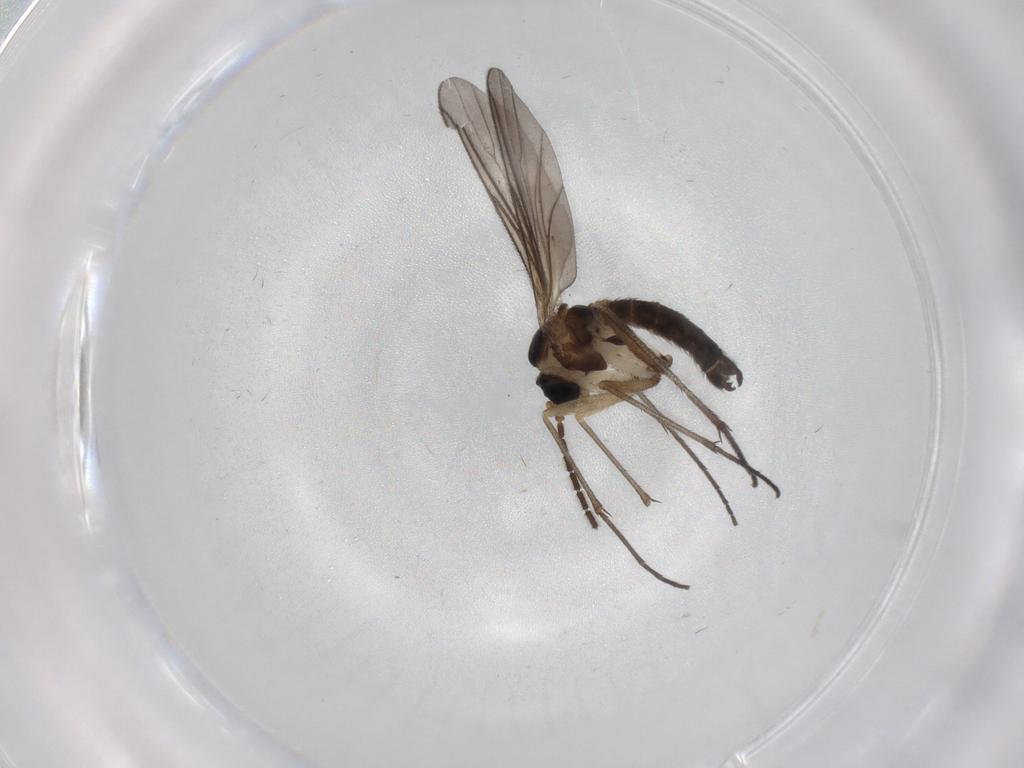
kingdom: Animalia
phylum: Arthropoda
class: Insecta
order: Diptera
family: Sciaridae
